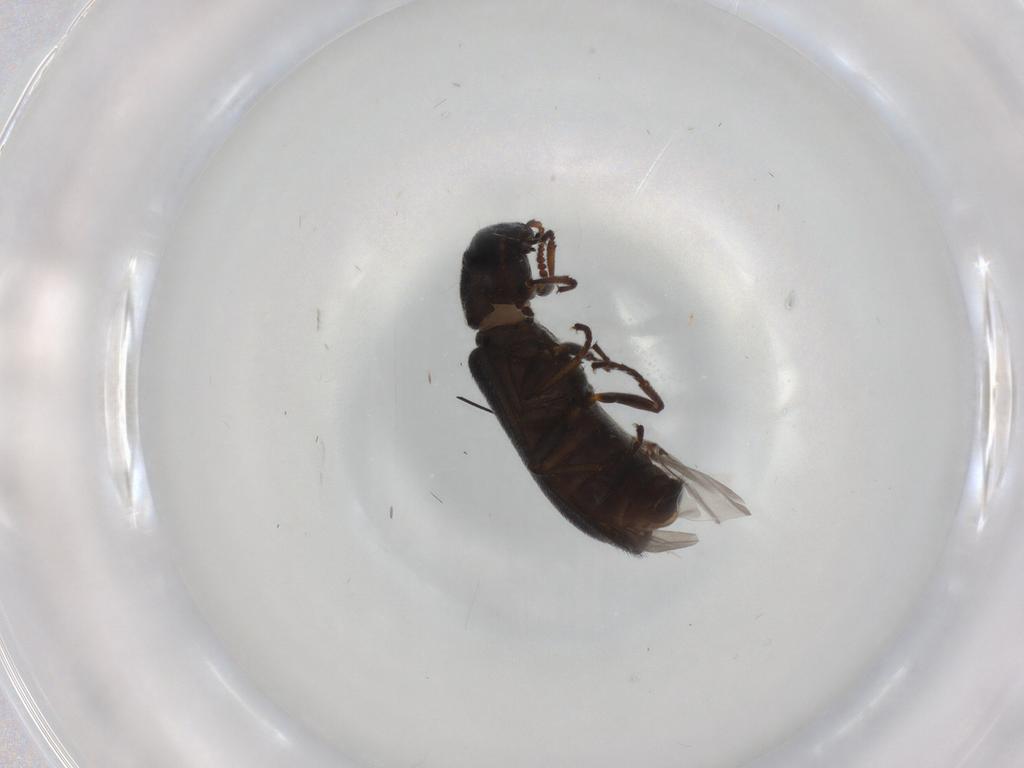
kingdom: Animalia
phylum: Arthropoda
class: Insecta
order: Coleoptera
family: Melyridae
